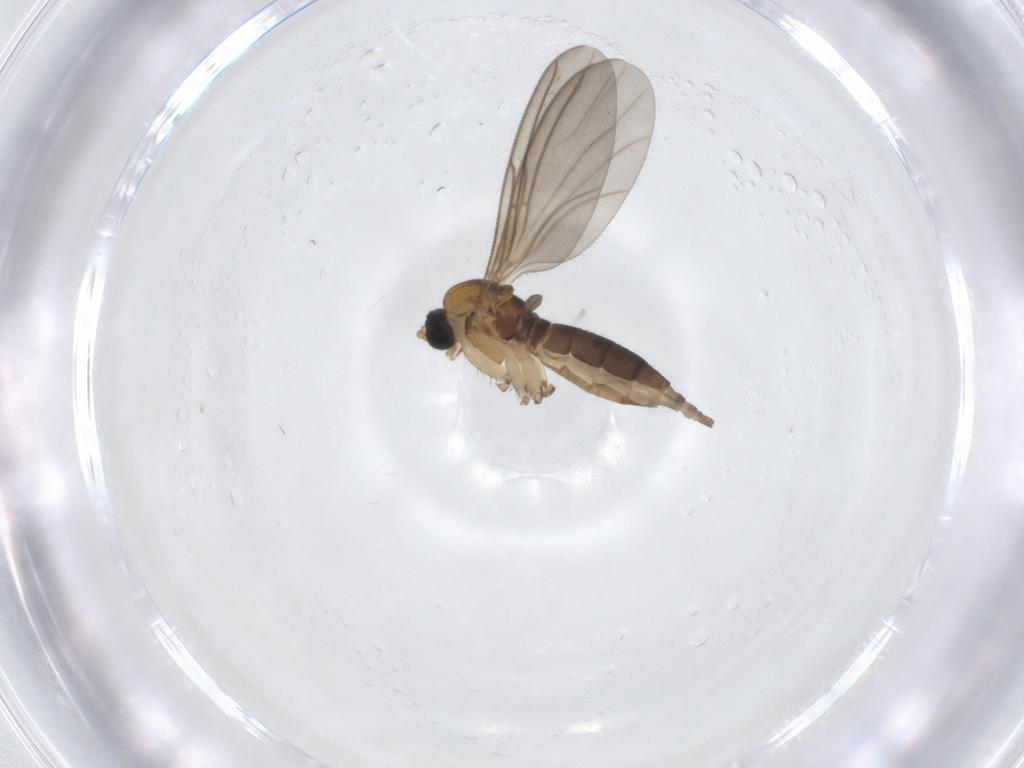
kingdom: Animalia
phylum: Arthropoda
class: Insecta
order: Diptera
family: Sciaridae
